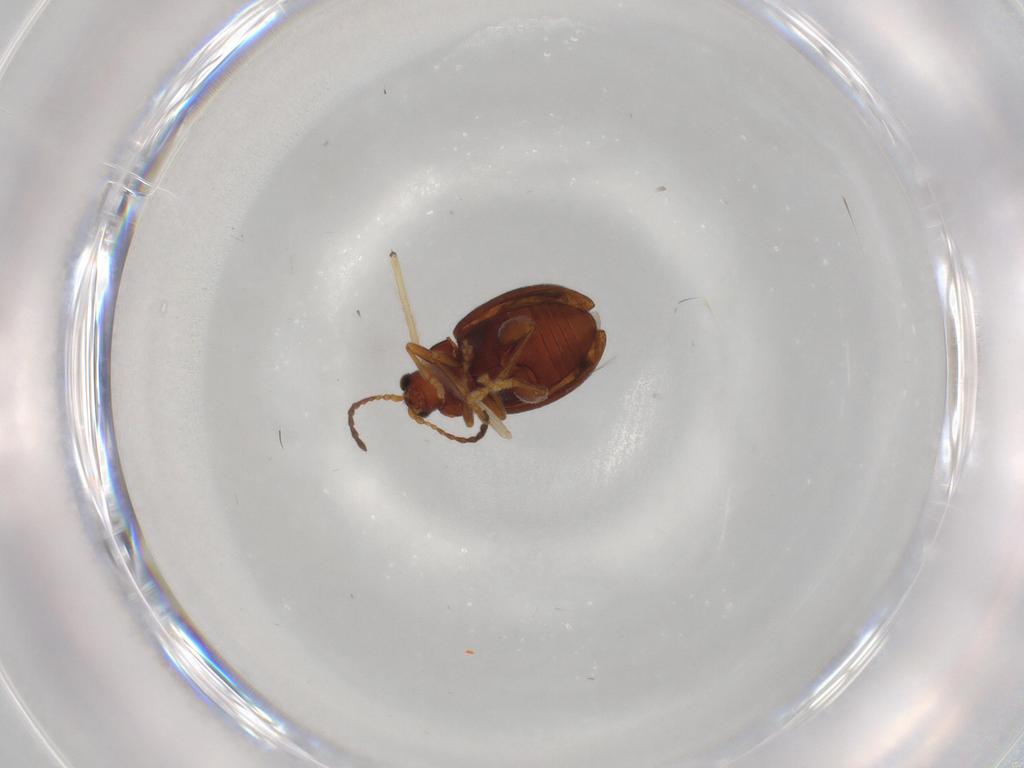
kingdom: Animalia
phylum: Arthropoda
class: Insecta
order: Coleoptera
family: Chrysomelidae
